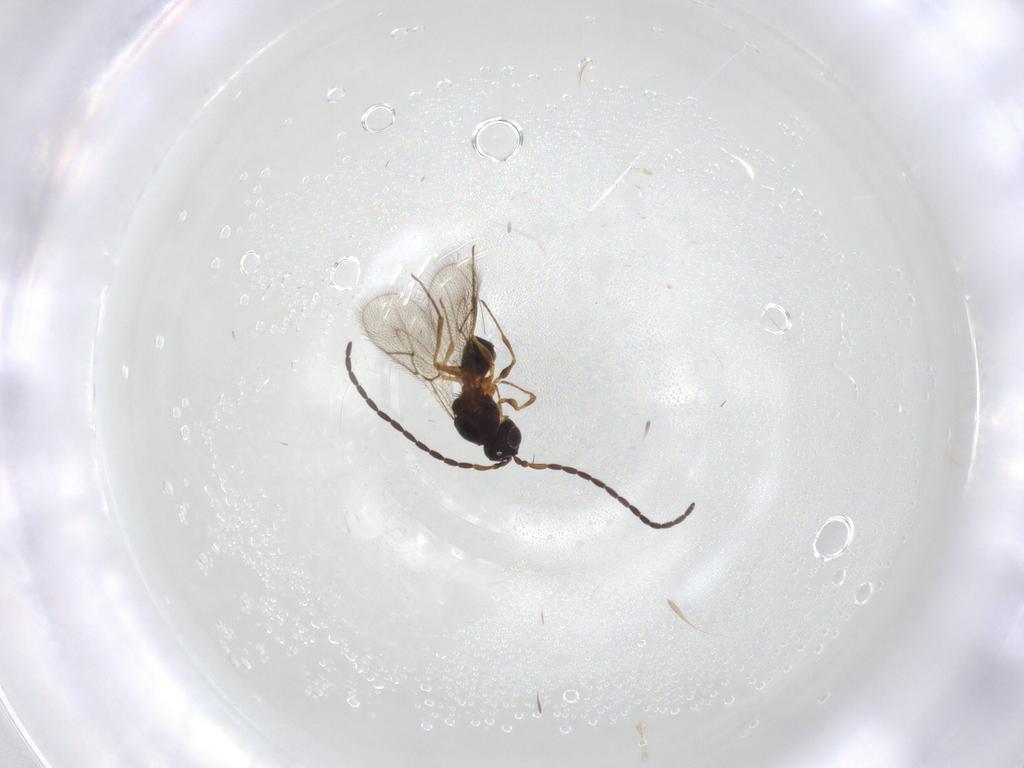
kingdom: Animalia
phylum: Arthropoda
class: Insecta
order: Hymenoptera
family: Figitidae
